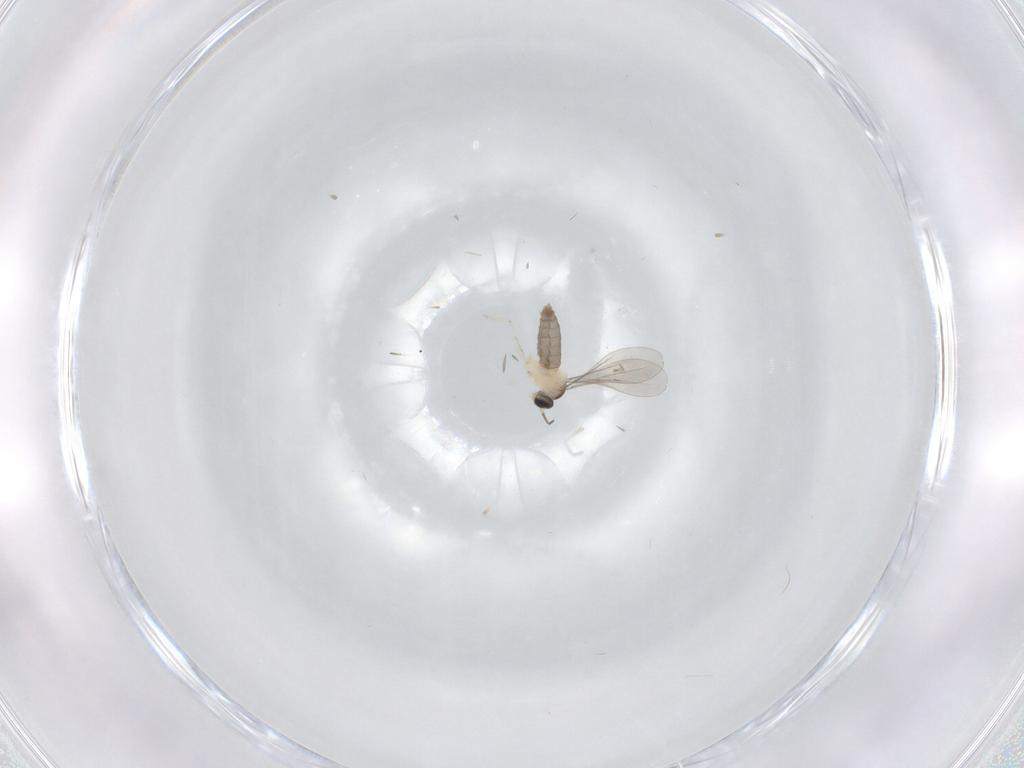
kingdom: Animalia
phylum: Arthropoda
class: Insecta
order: Diptera
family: Cecidomyiidae
